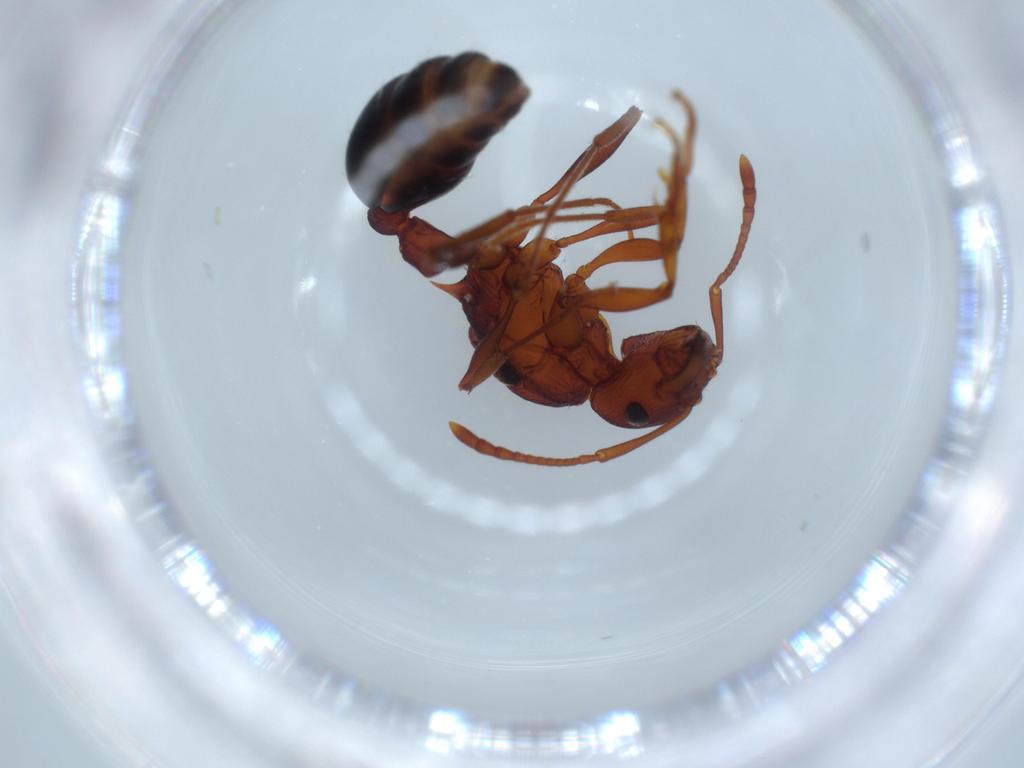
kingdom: Animalia
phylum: Arthropoda
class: Insecta
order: Hymenoptera
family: Formicidae
